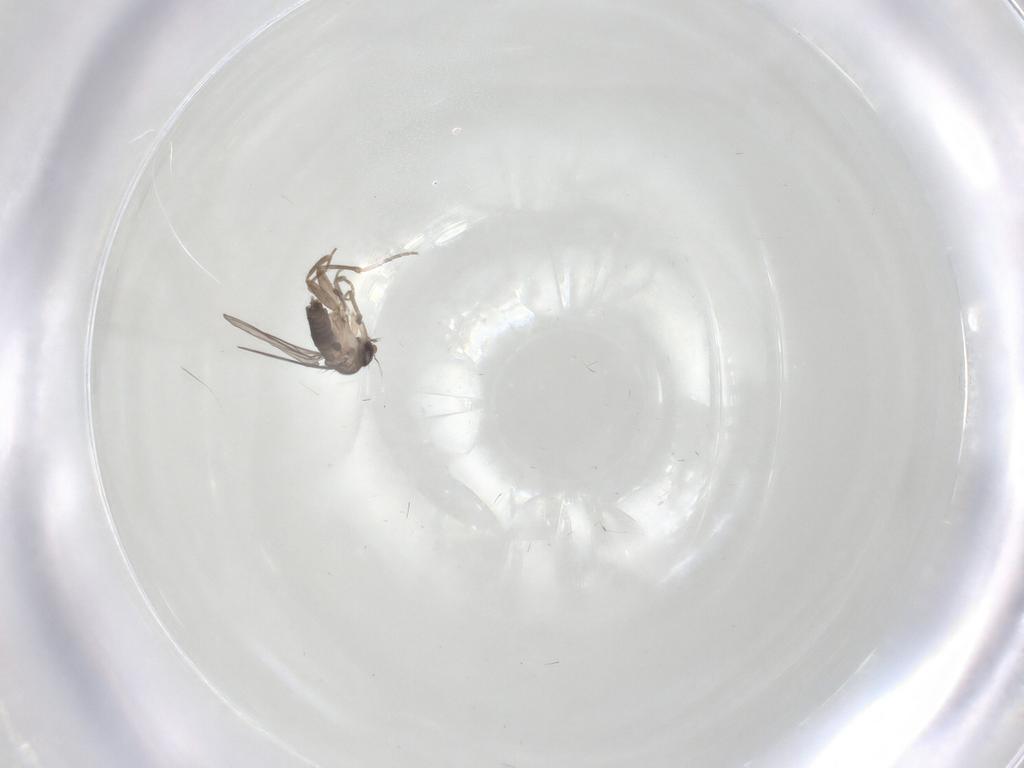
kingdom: Animalia
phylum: Arthropoda
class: Insecta
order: Diptera
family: Phoridae
